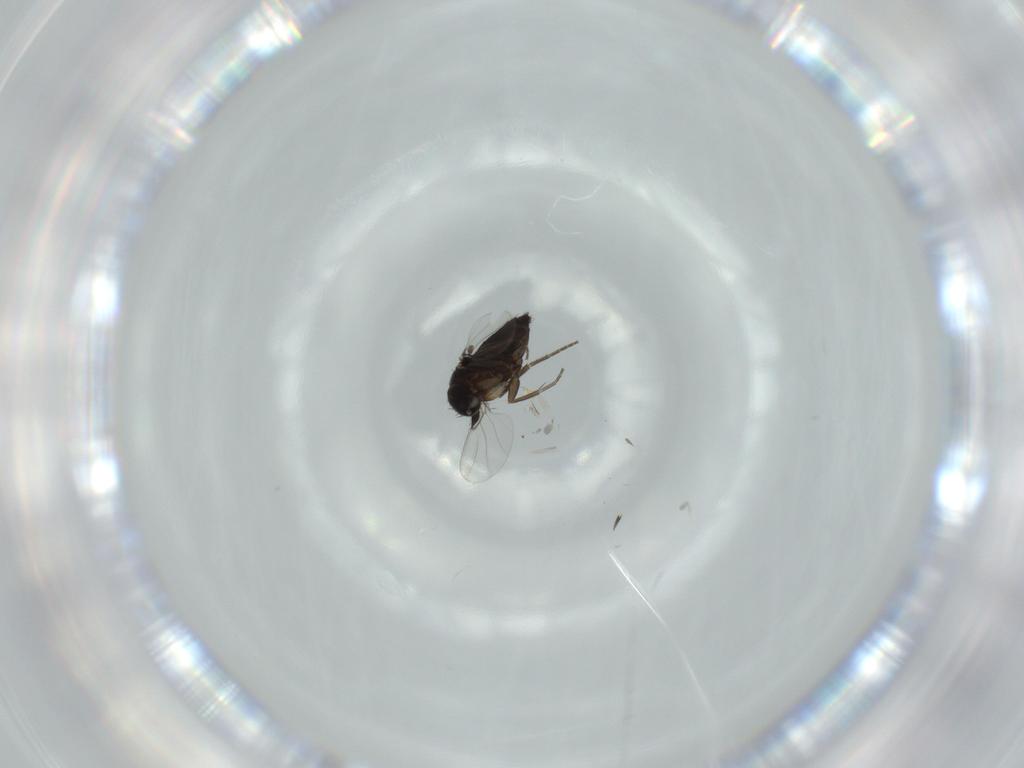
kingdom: Animalia
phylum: Arthropoda
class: Insecta
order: Diptera
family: Phoridae
